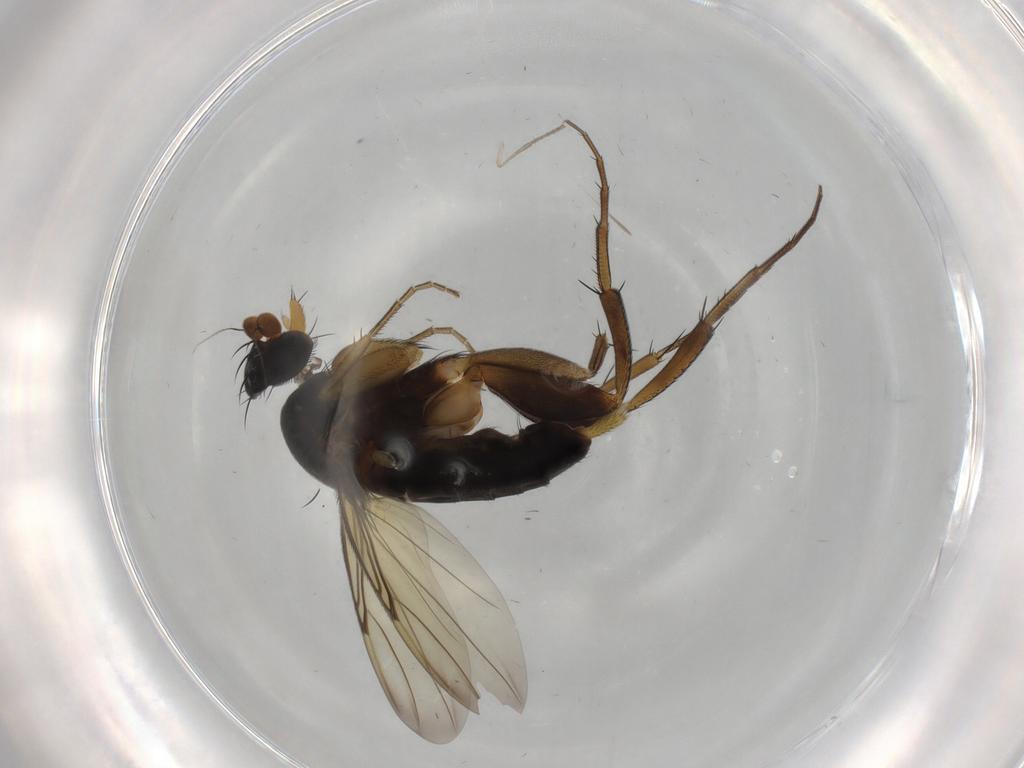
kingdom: Animalia
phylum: Arthropoda
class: Insecta
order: Diptera
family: Phoridae
